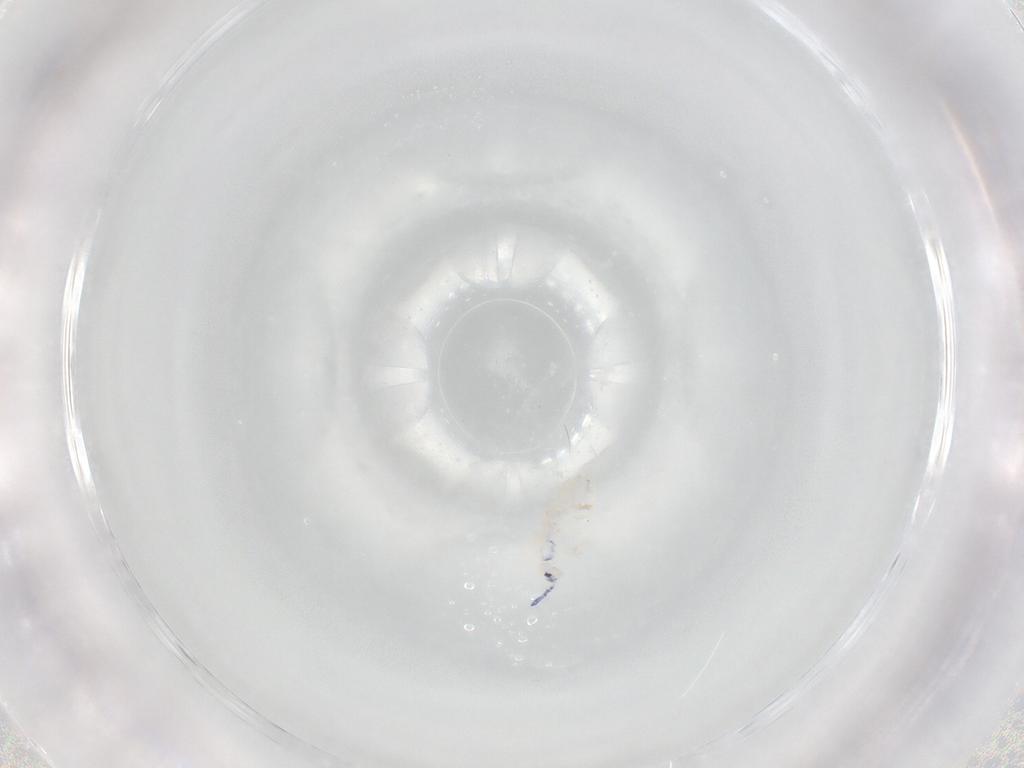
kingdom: Animalia
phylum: Arthropoda
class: Collembola
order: Entomobryomorpha
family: Entomobryidae
